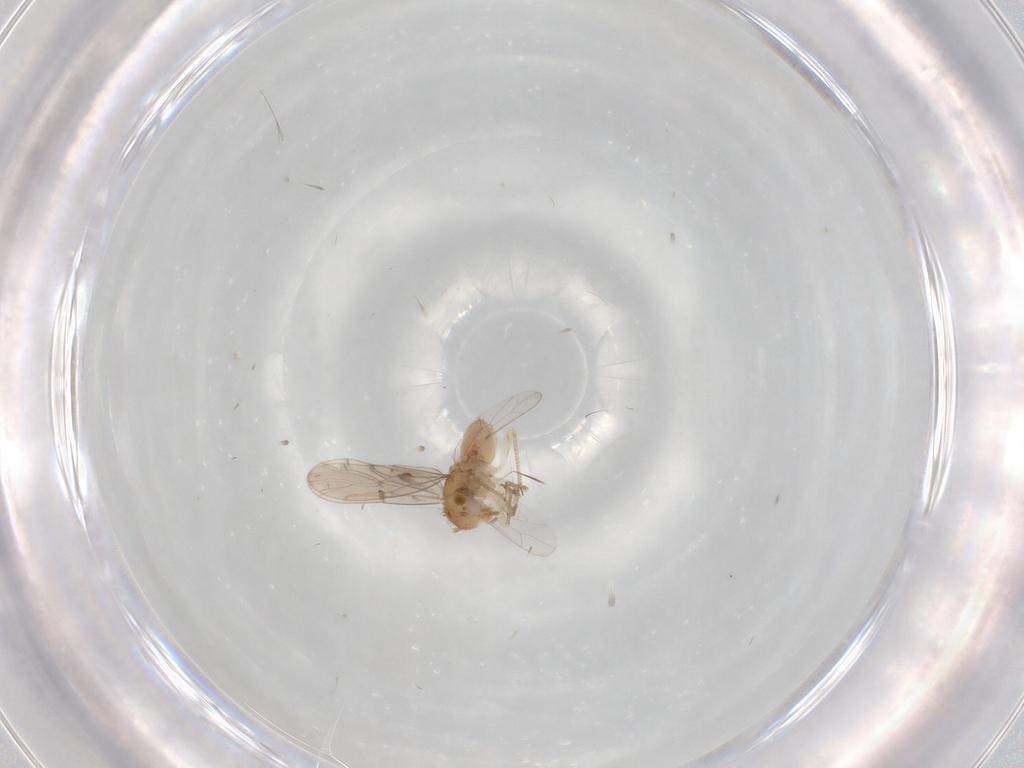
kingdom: Animalia
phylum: Arthropoda
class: Insecta
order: Psocodea
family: Ectopsocidae
